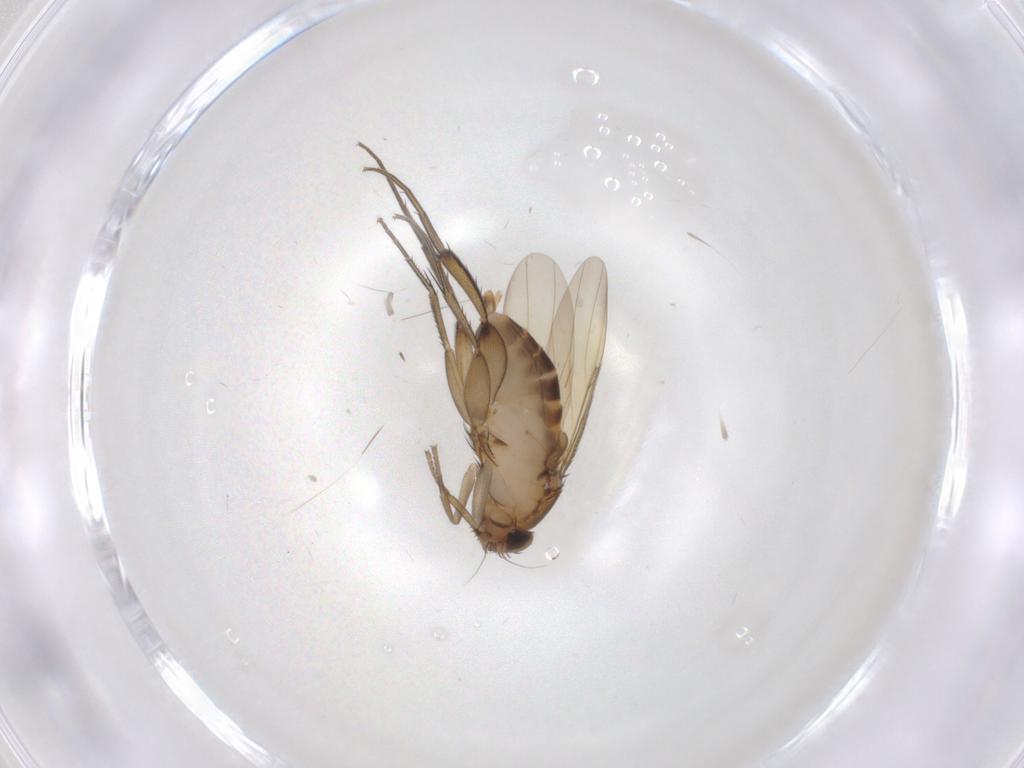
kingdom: Animalia
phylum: Arthropoda
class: Insecta
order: Diptera
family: Phoridae
